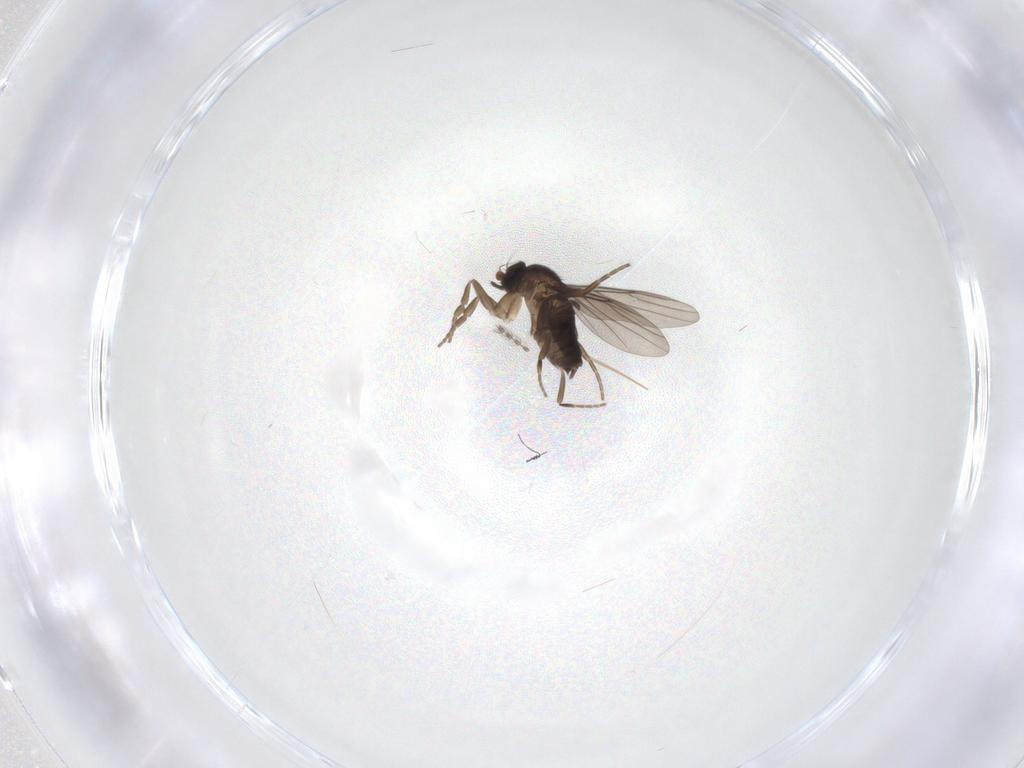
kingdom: Animalia
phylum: Arthropoda
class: Insecta
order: Diptera
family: Phoridae
